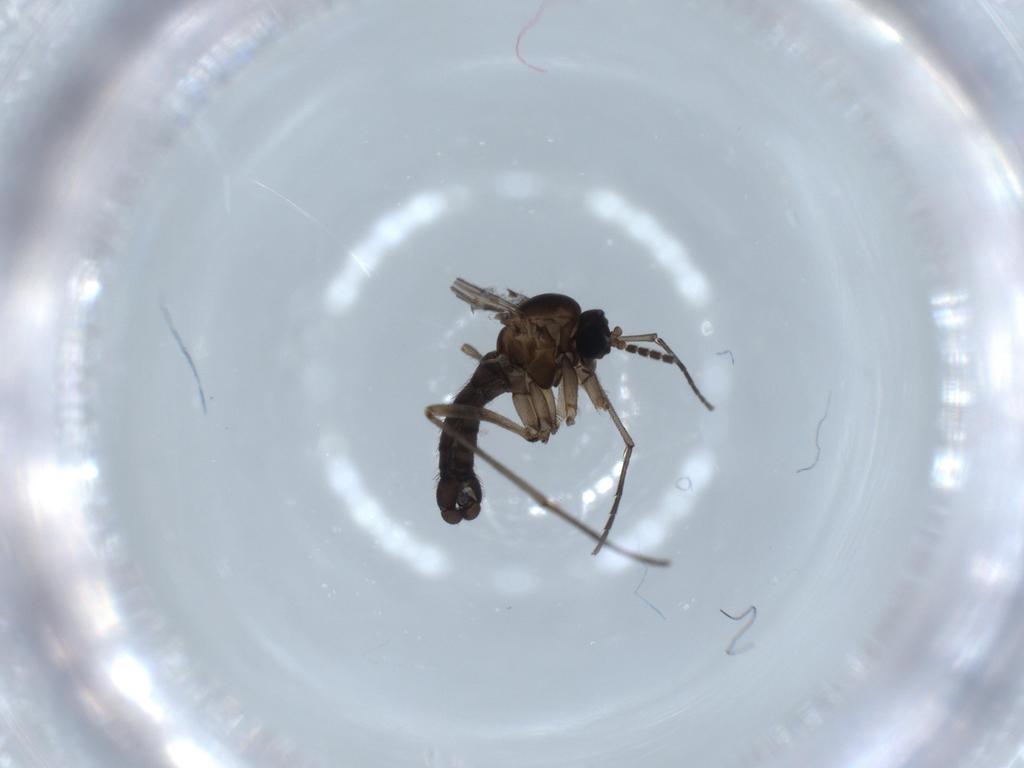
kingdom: Animalia
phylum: Arthropoda
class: Insecta
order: Diptera
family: Sciaridae
